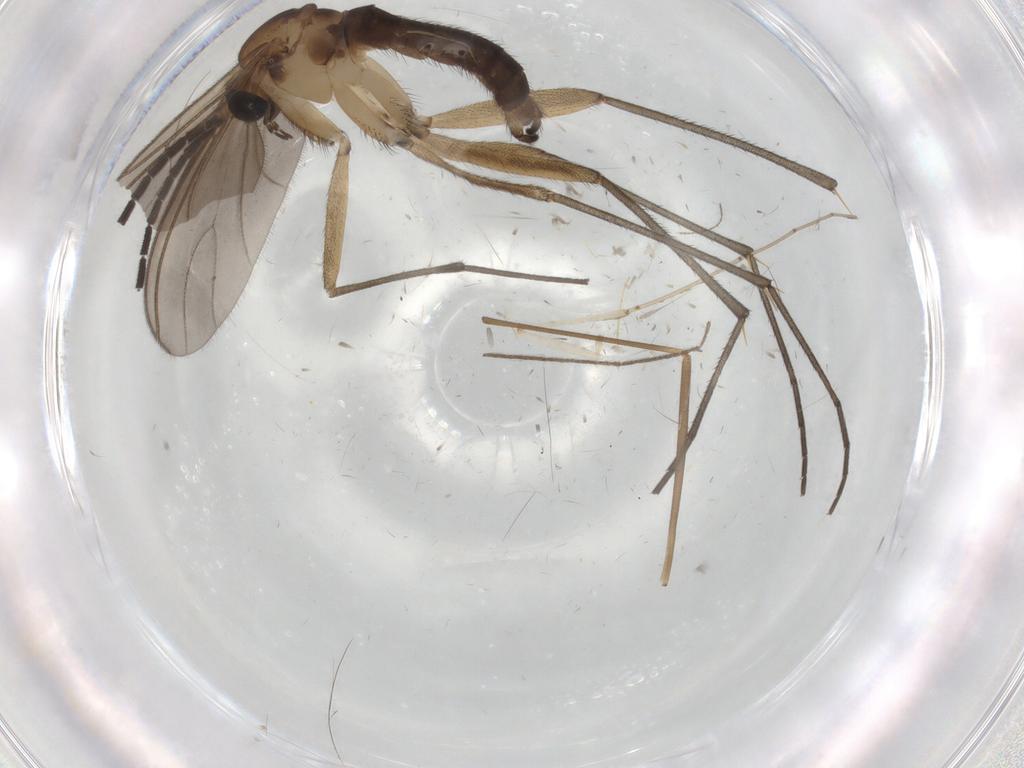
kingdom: Animalia
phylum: Arthropoda
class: Insecta
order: Diptera
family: Limoniidae
